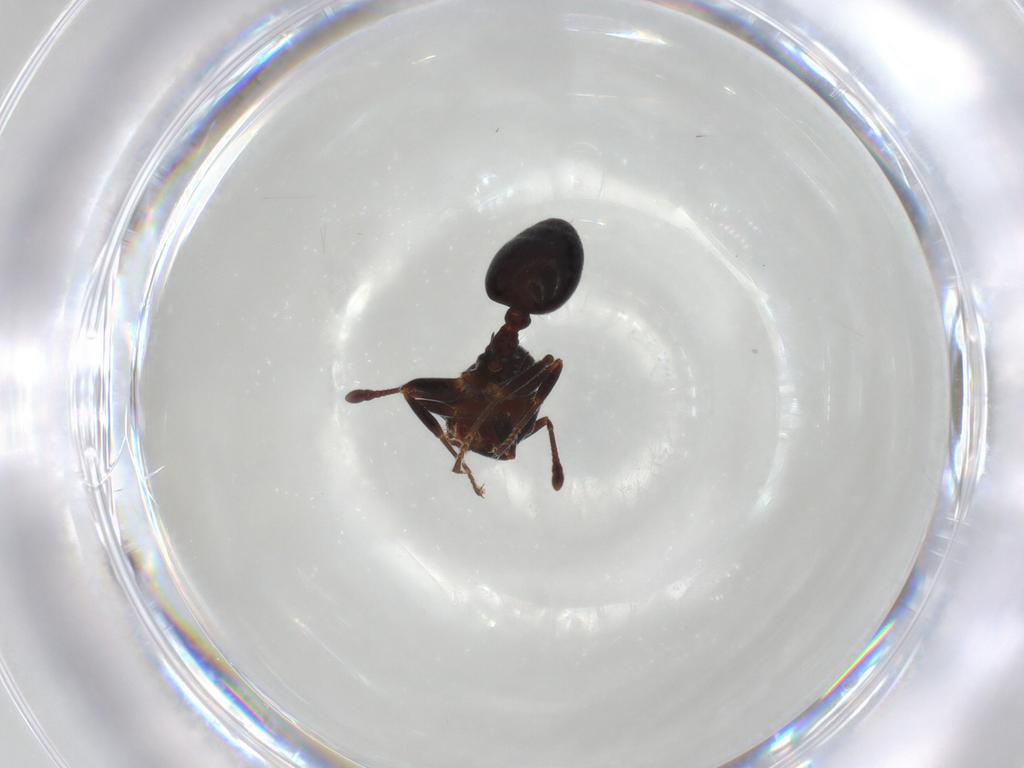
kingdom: Animalia
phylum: Arthropoda
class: Insecta
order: Hymenoptera
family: Formicidae
